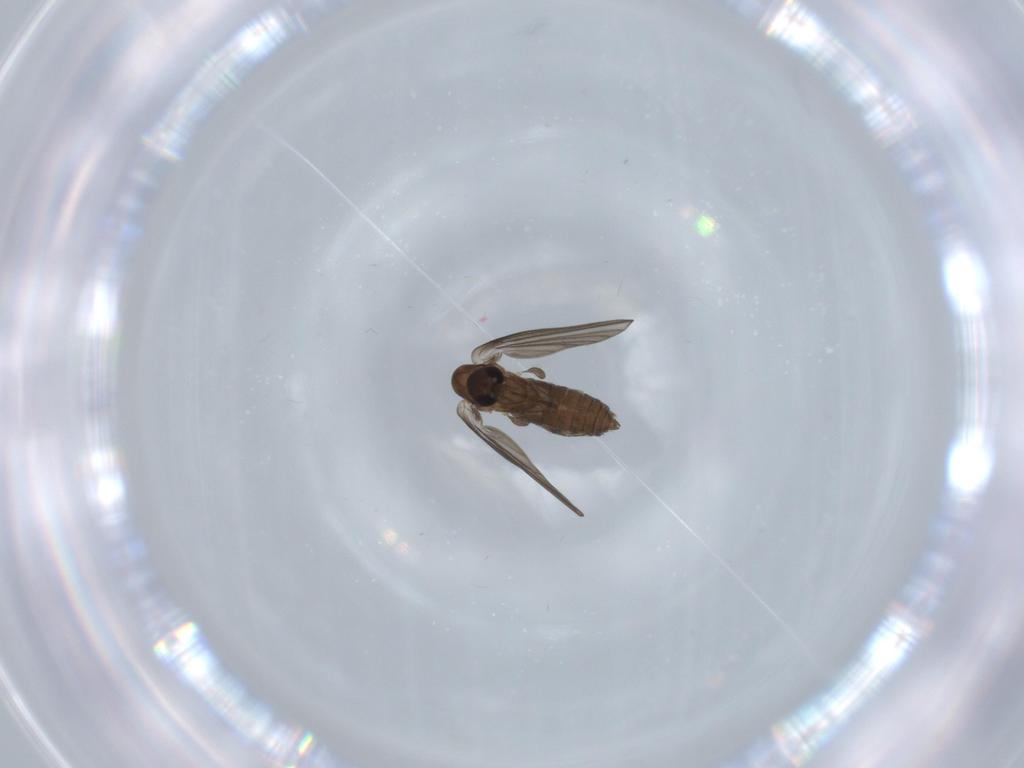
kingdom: Animalia
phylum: Arthropoda
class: Insecta
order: Diptera
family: Psychodidae
